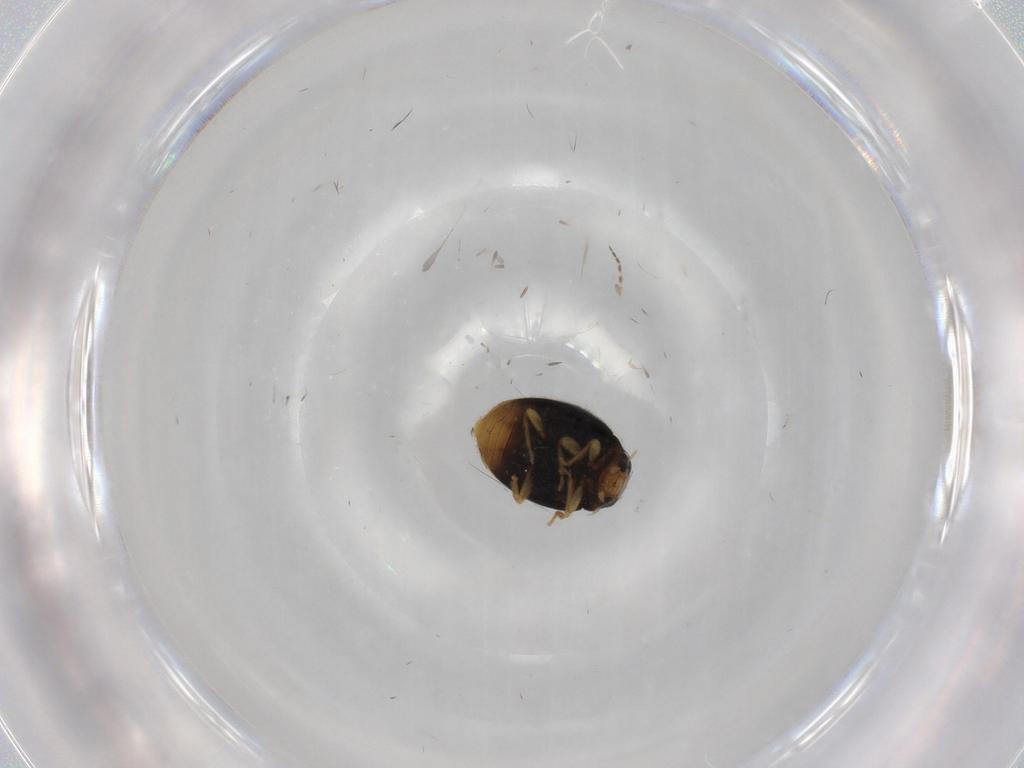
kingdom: Animalia
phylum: Arthropoda
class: Insecta
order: Coleoptera
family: Coccinellidae
